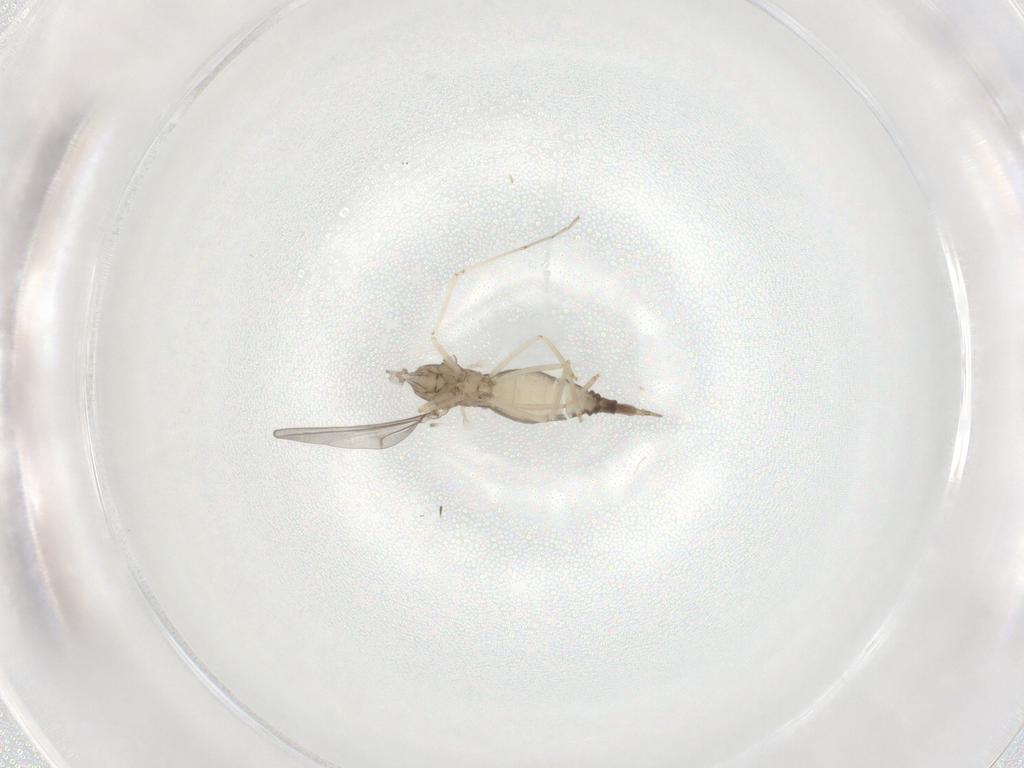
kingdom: Animalia
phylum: Arthropoda
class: Insecta
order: Diptera
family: Cecidomyiidae
